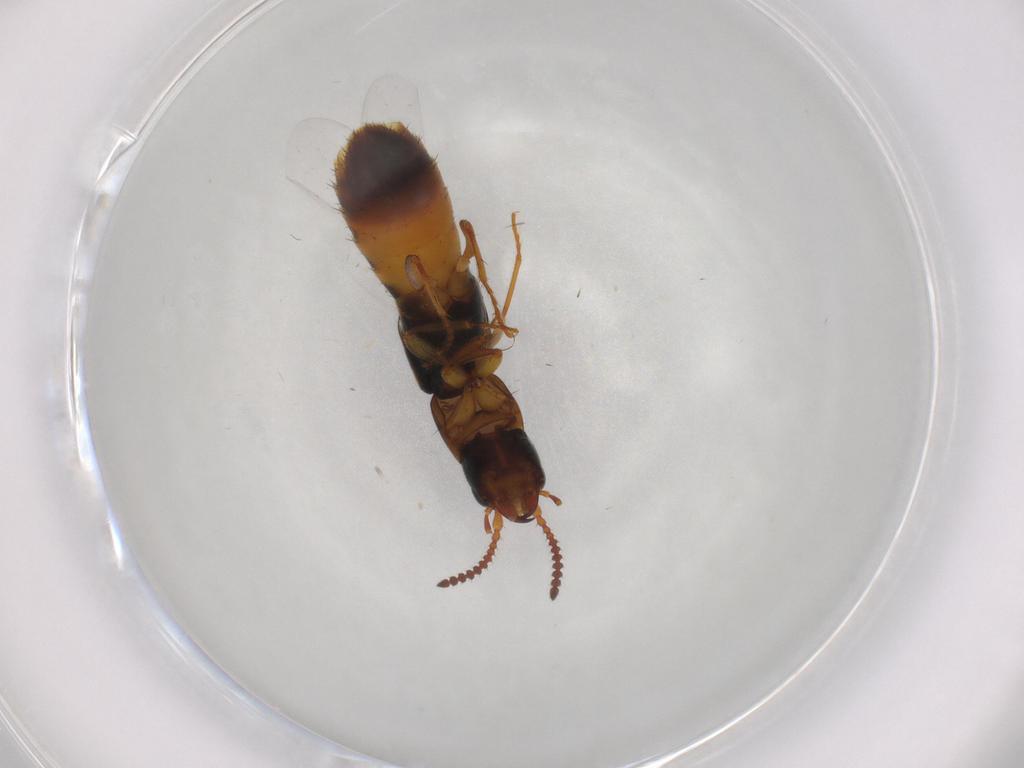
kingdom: Animalia
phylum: Arthropoda
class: Insecta
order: Coleoptera
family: Staphylinidae
